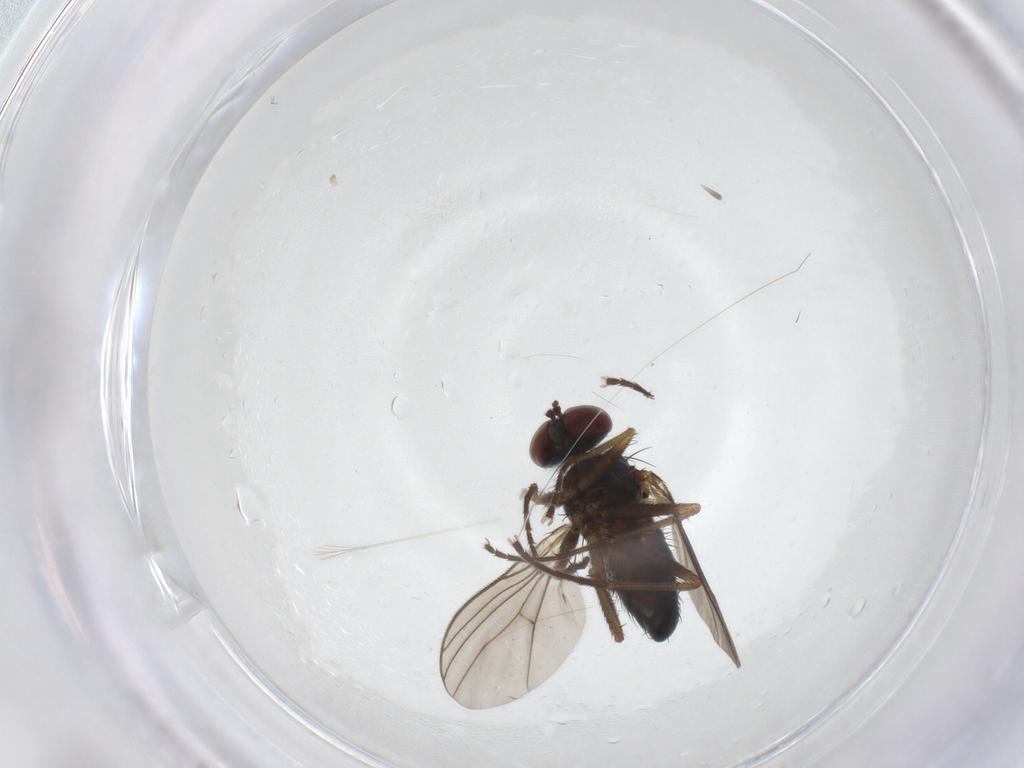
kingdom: Animalia
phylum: Arthropoda
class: Insecta
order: Diptera
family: Dolichopodidae
